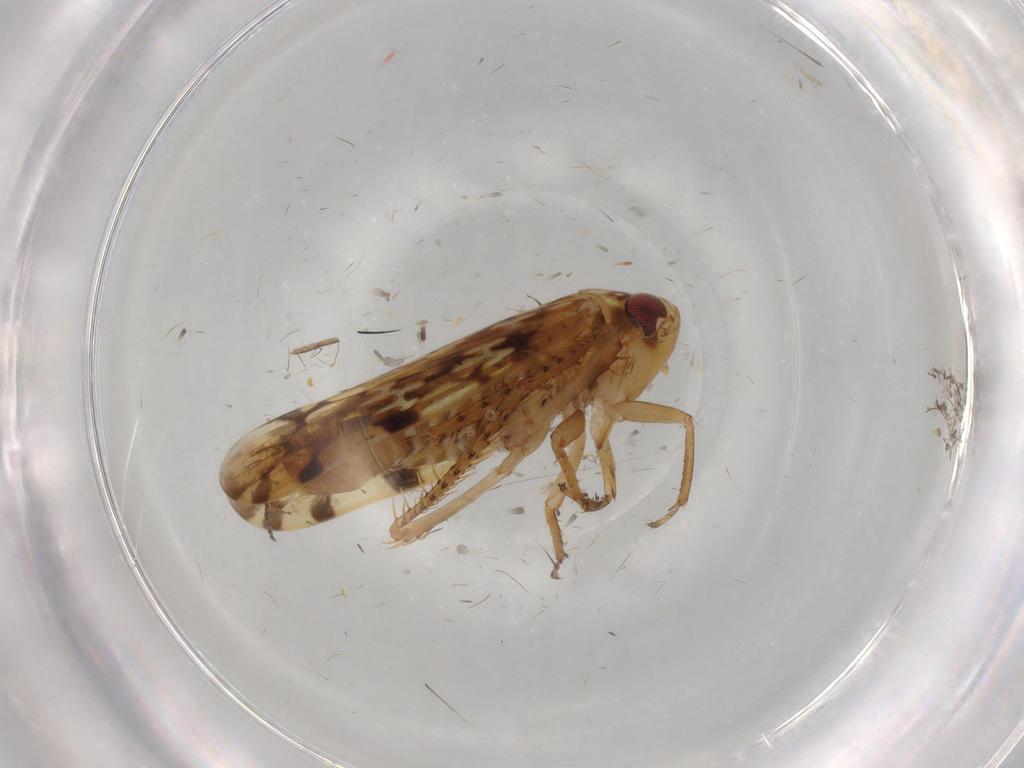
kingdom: Animalia
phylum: Arthropoda
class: Insecta
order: Hemiptera
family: Cicadellidae
